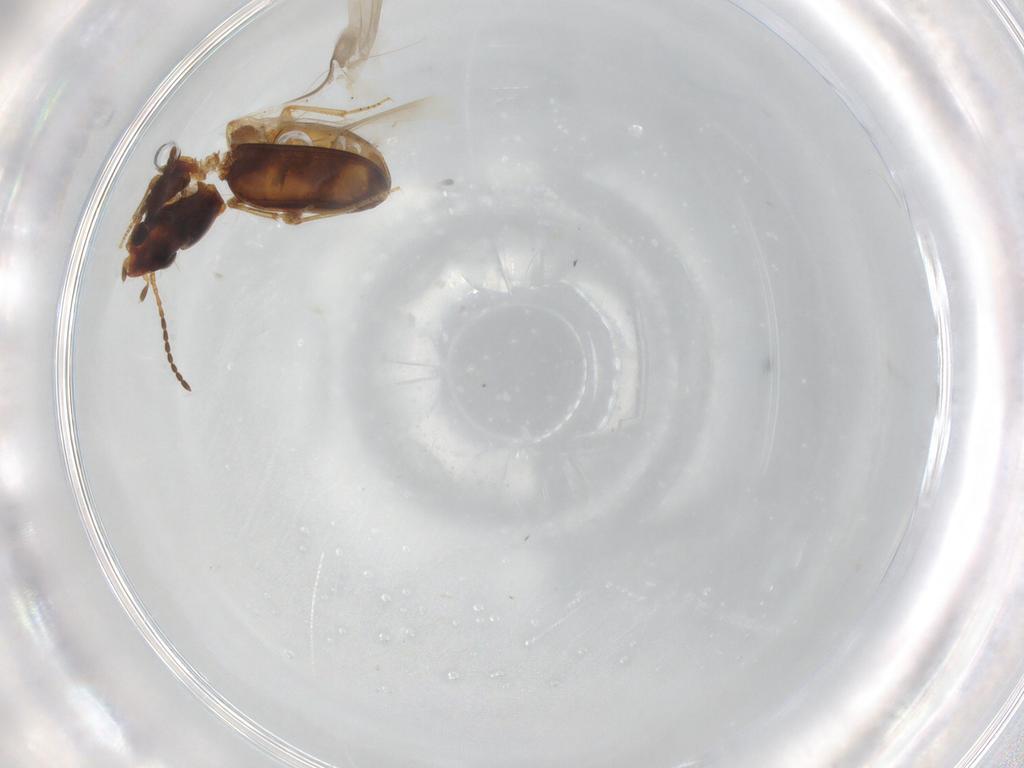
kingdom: Animalia
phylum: Arthropoda
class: Insecta
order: Coleoptera
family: Carabidae
